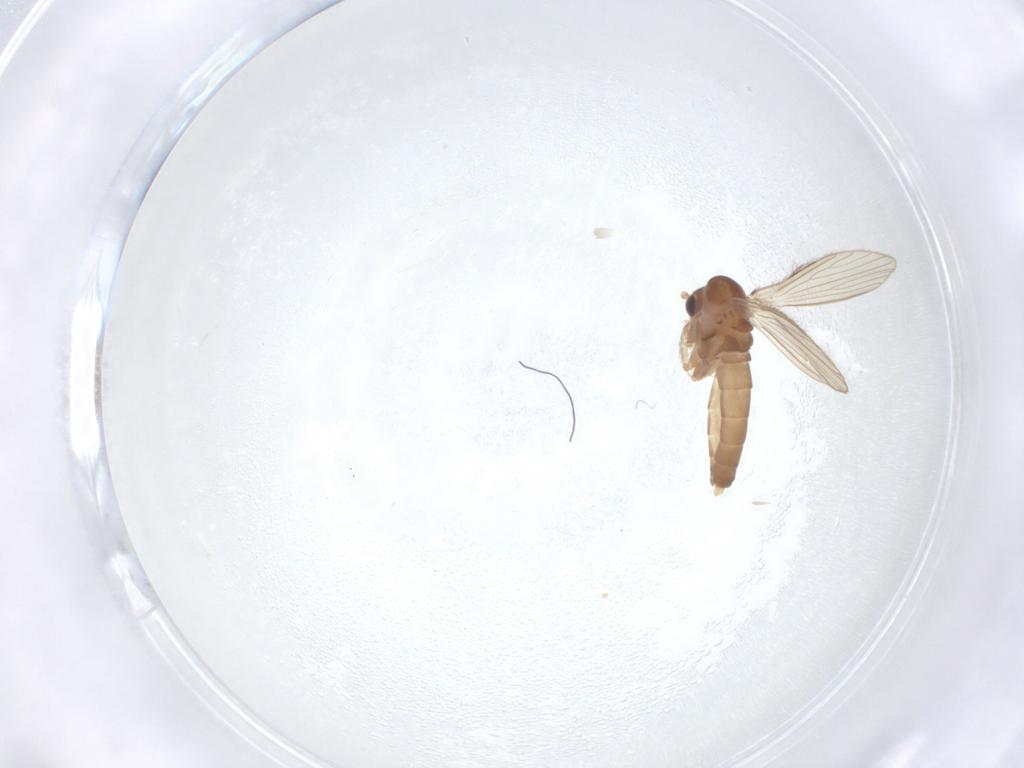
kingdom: Animalia
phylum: Arthropoda
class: Insecta
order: Diptera
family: Psychodidae
